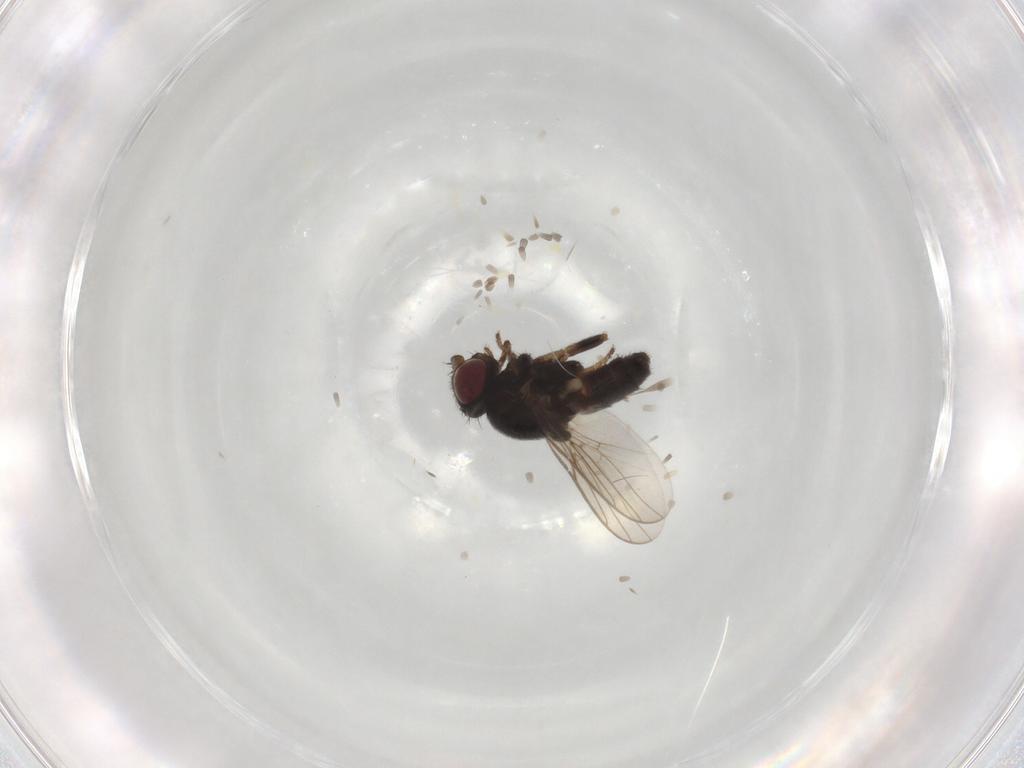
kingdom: Animalia
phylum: Arthropoda
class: Insecta
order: Diptera
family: Chloropidae
